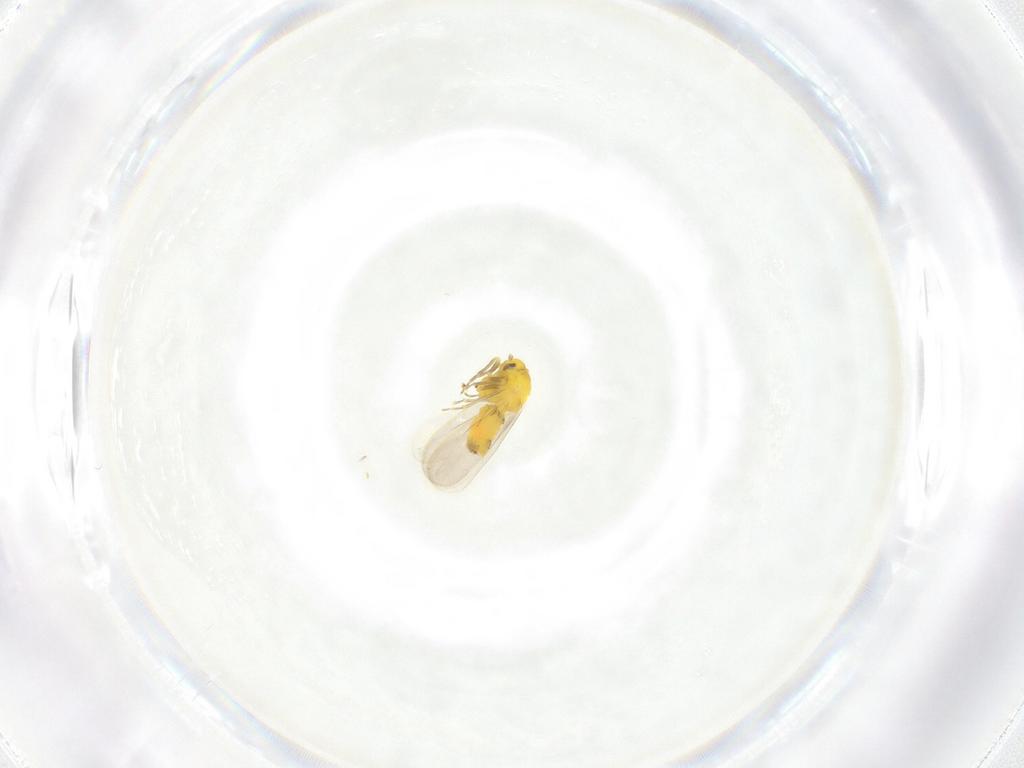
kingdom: Animalia
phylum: Arthropoda
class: Insecta
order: Hemiptera
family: Aleyrodidae
